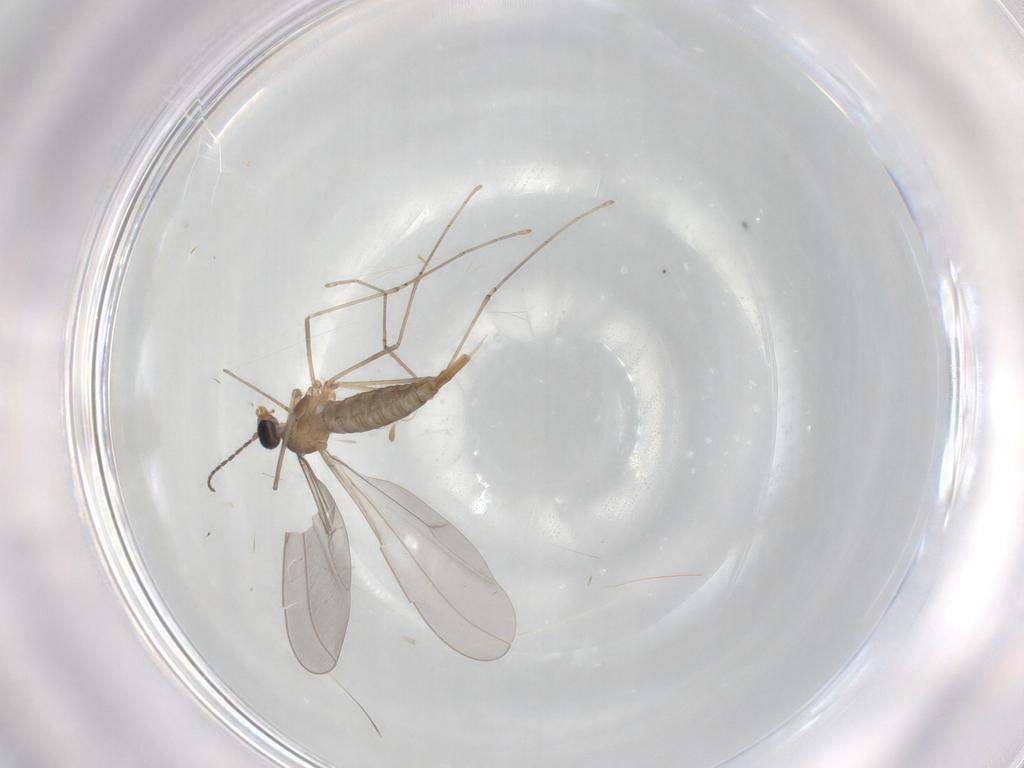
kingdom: Animalia
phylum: Arthropoda
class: Insecta
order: Diptera
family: Cecidomyiidae
